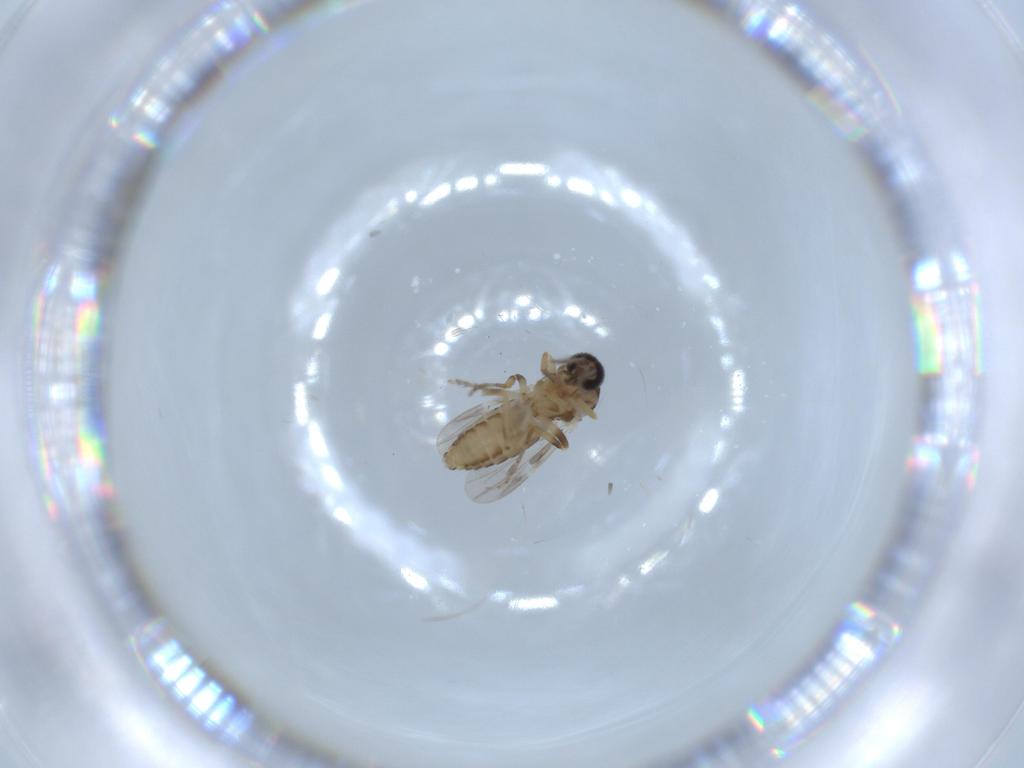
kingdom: Animalia
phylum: Arthropoda
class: Insecta
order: Diptera
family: Ceratopogonidae
